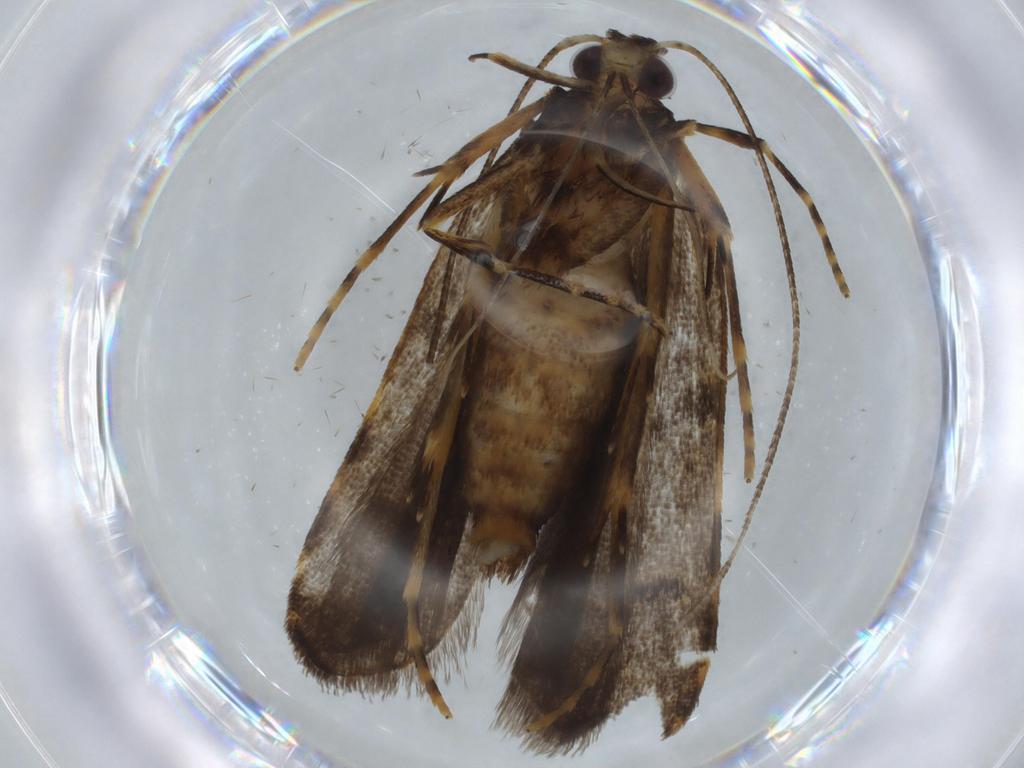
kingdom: Animalia
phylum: Arthropoda
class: Insecta
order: Lepidoptera
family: Gelechiidae
